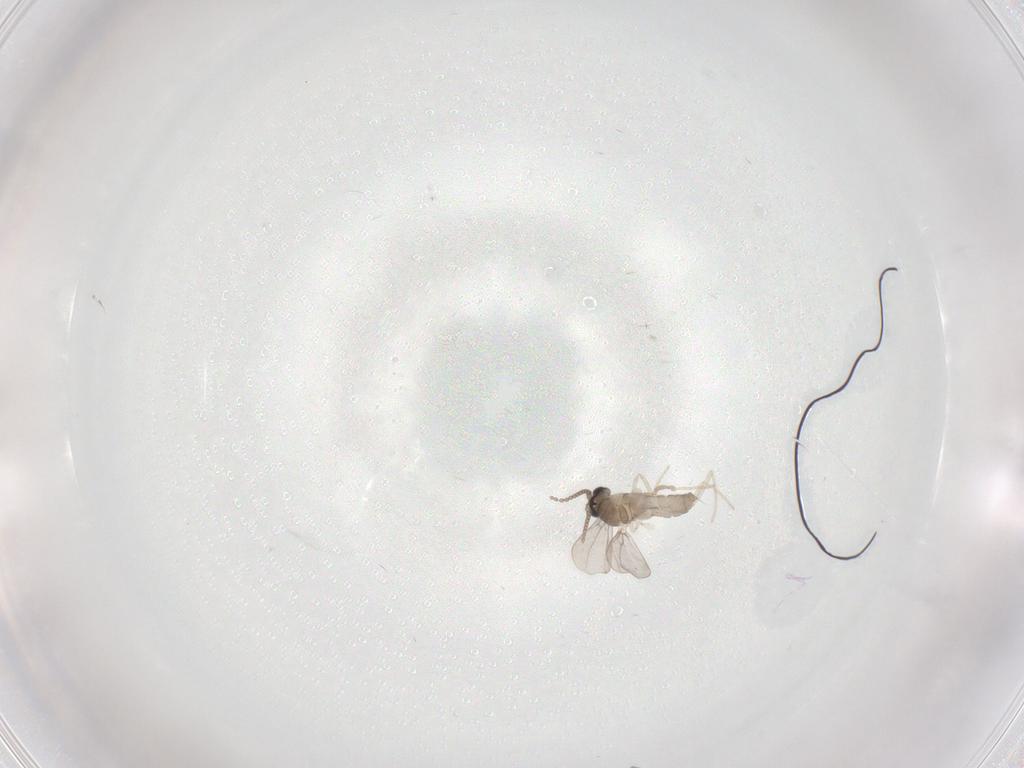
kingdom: Animalia
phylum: Arthropoda
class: Insecta
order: Diptera
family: Cecidomyiidae
